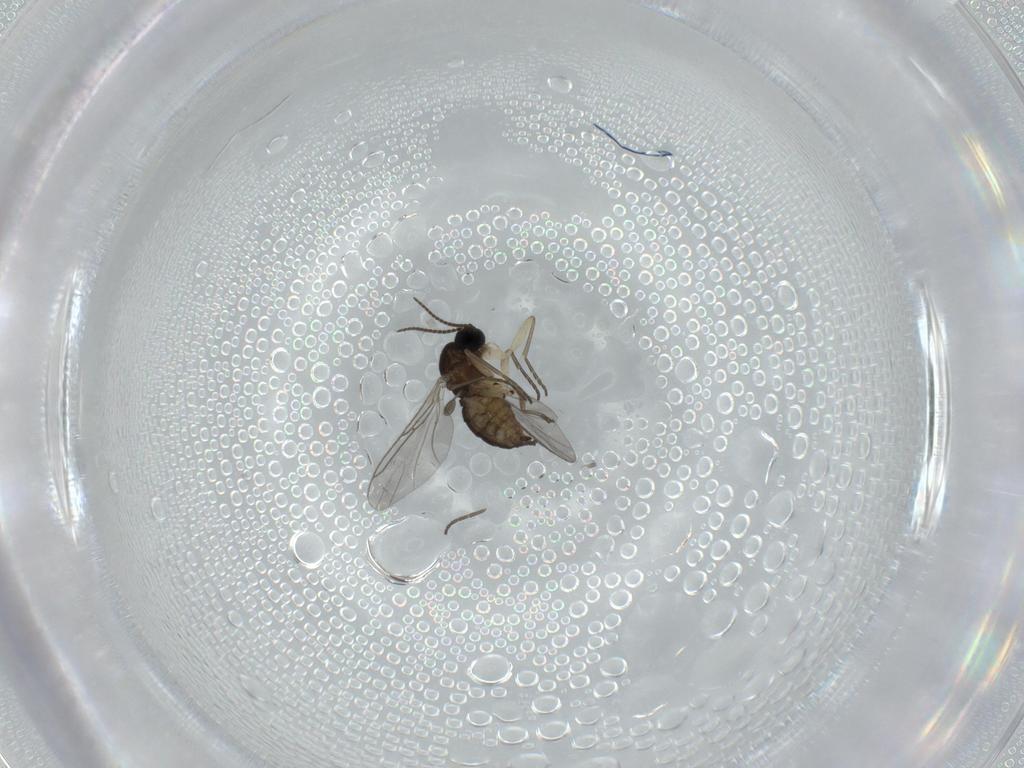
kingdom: Animalia
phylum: Arthropoda
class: Insecta
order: Diptera
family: Phoridae
